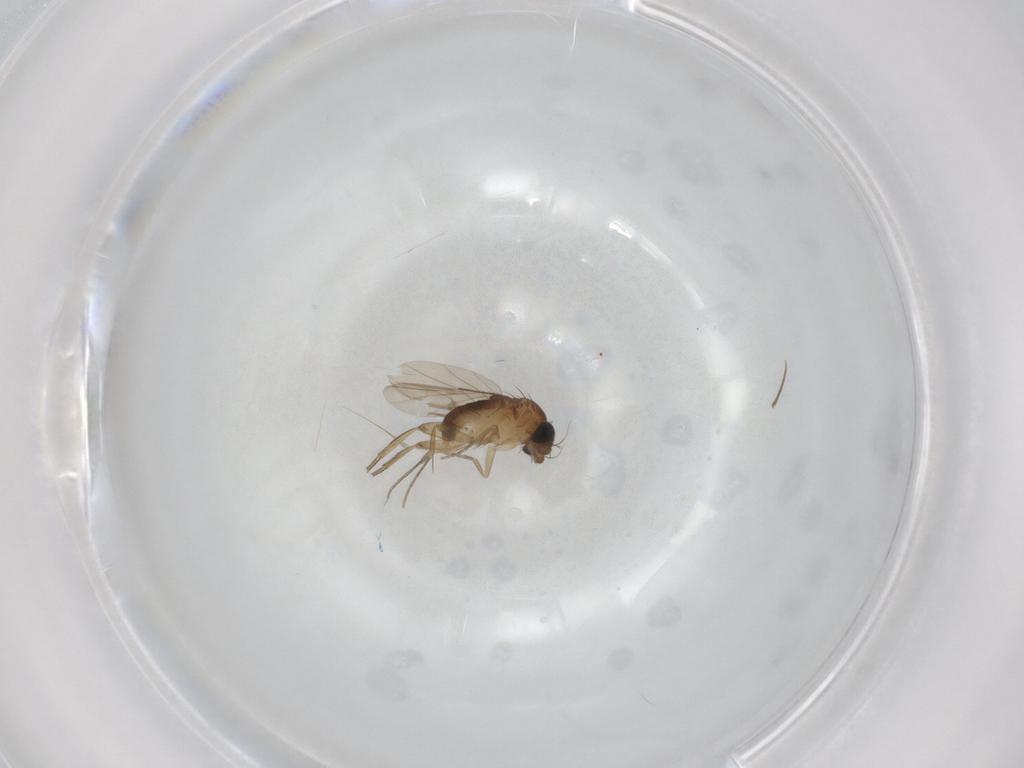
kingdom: Animalia
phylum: Arthropoda
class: Insecta
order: Diptera
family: Phoridae
